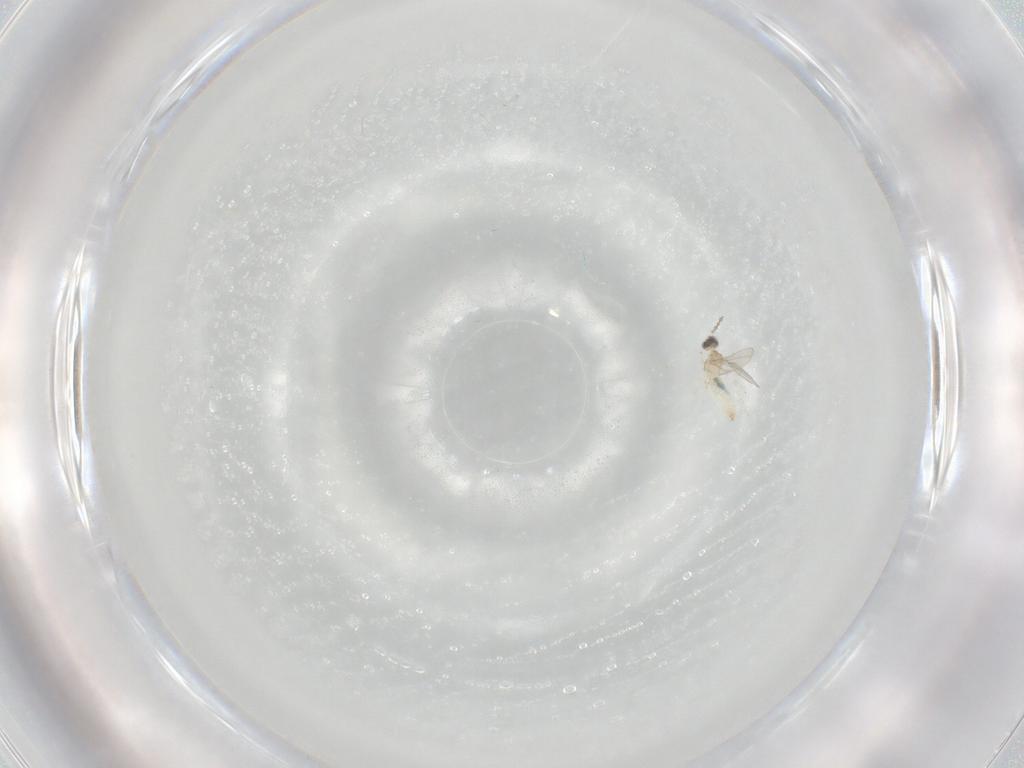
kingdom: Animalia
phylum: Arthropoda
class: Insecta
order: Diptera
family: Cecidomyiidae
